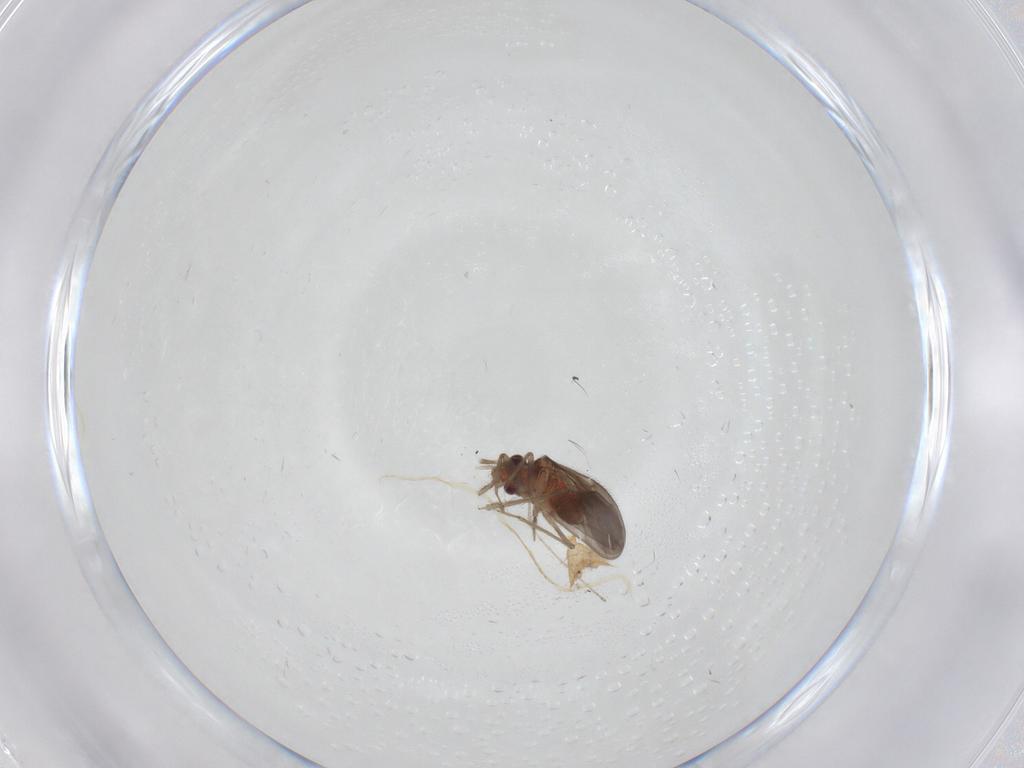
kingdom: Animalia
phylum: Arthropoda
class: Insecta
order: Hemiptera
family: Ceratocombidae
